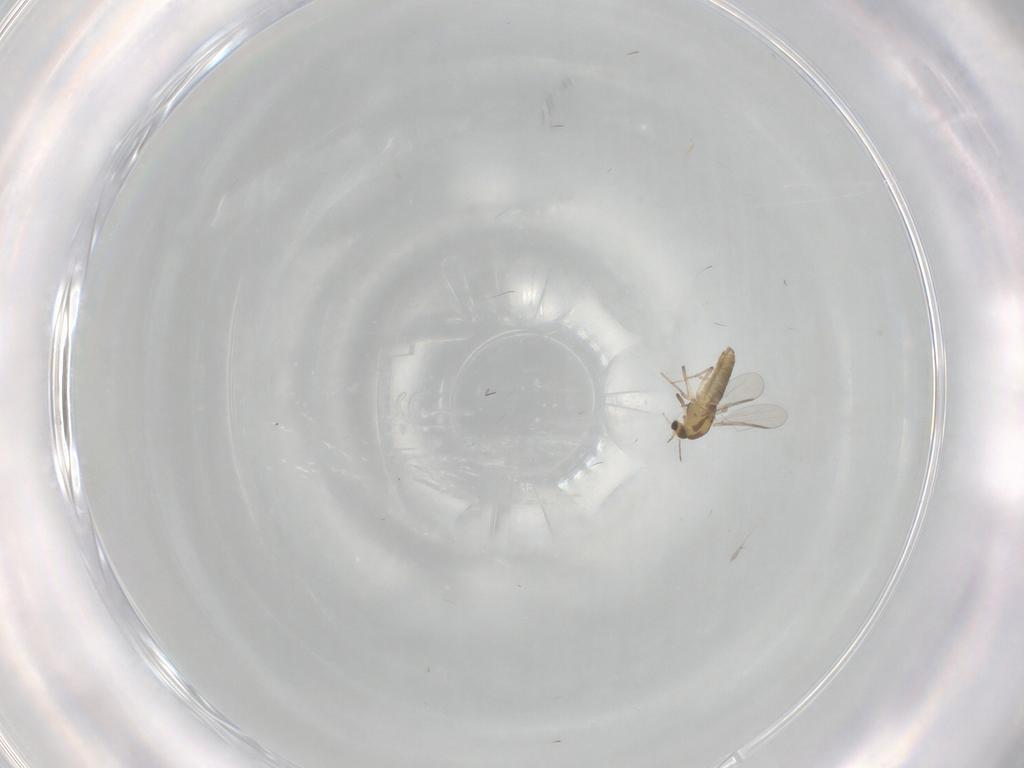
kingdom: Animalia
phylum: Arthropoda
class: Insecta
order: Diptera
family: Chironomidae
